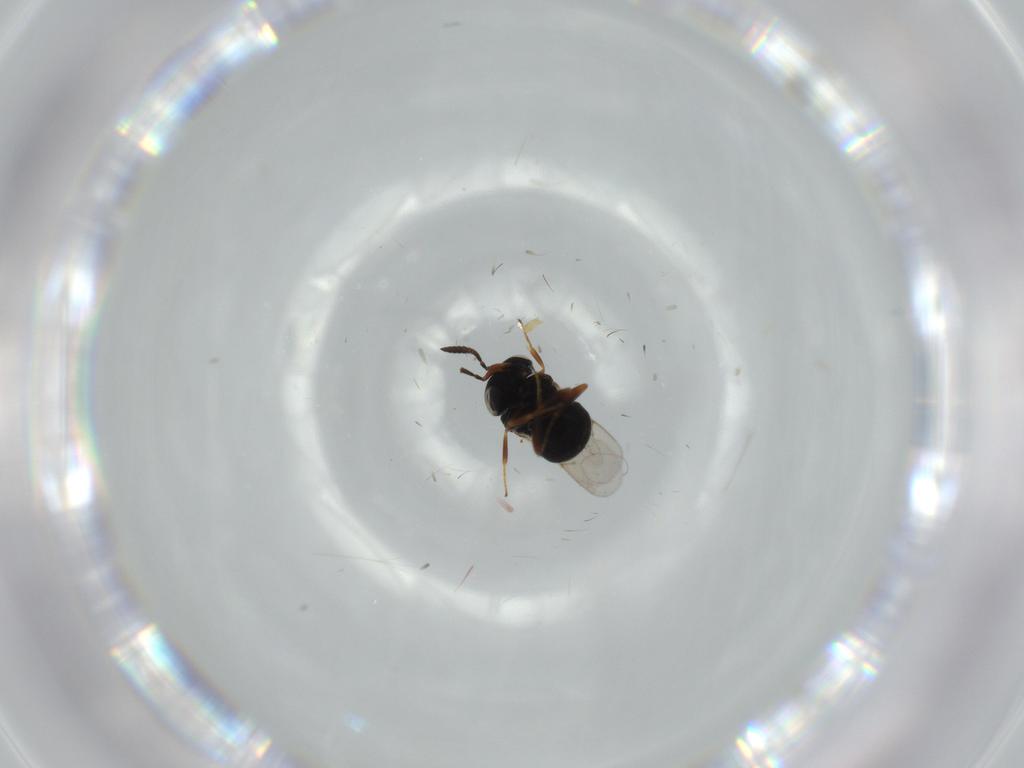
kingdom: Animalia
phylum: Arthropoda
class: Insecta
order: Hymenoptera
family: Scelionidae
